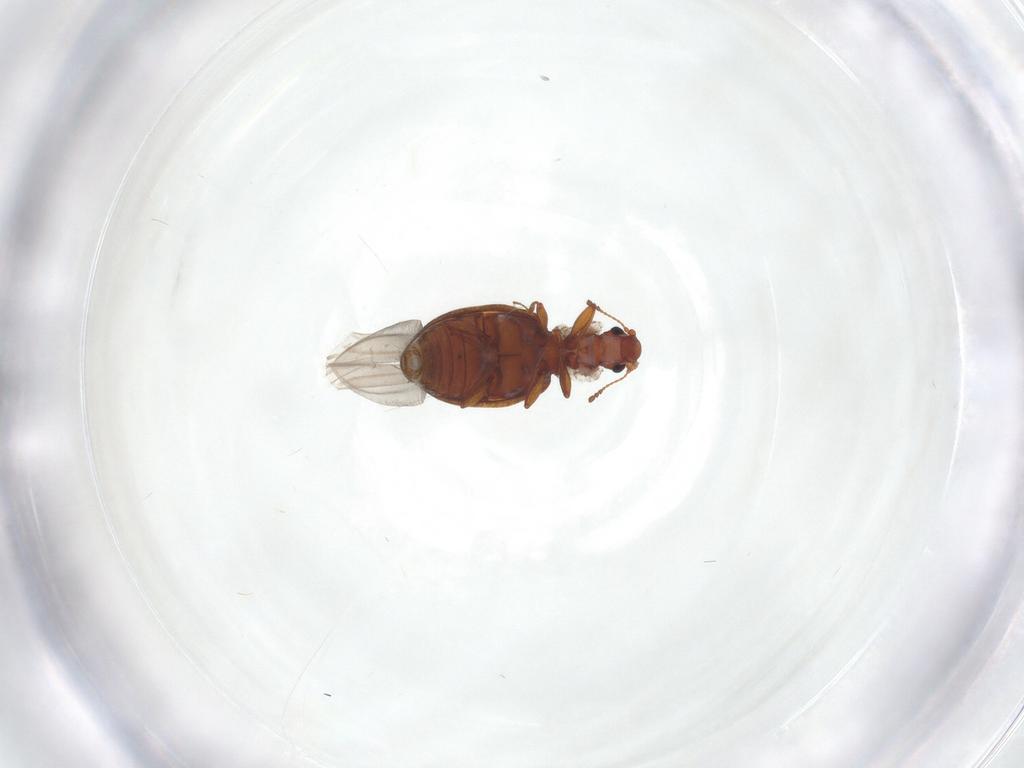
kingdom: Animalia
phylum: Arthropoda
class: Insecta
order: Coleoptera
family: Latridiidae
